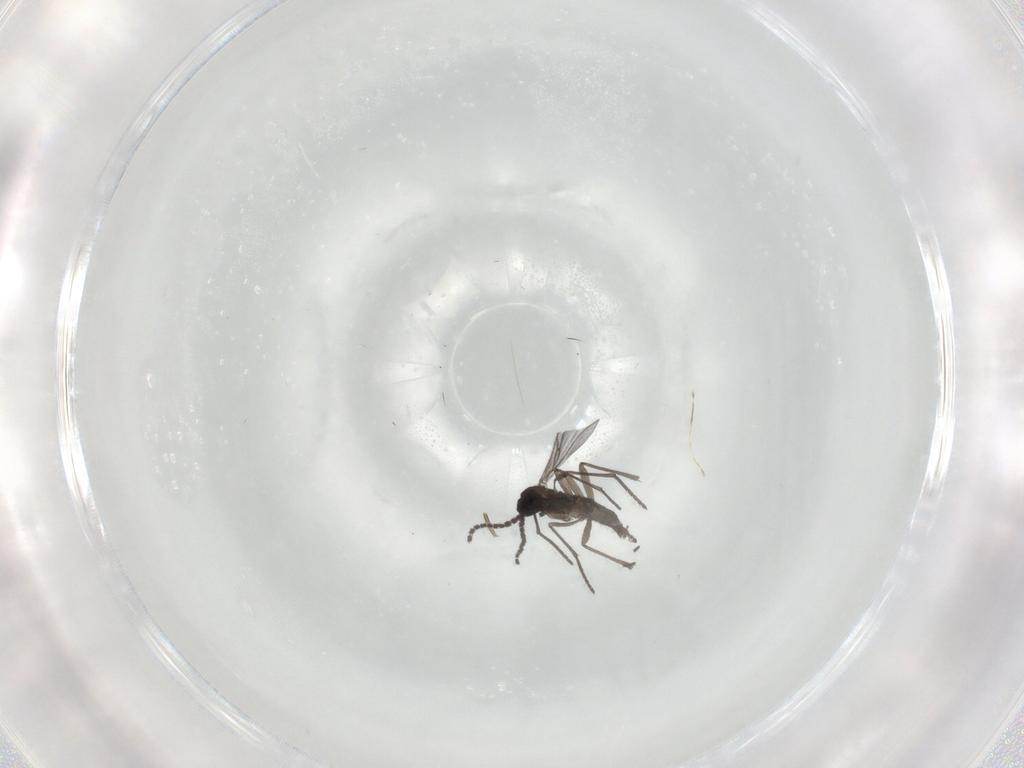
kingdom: Animalia
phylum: Arthropoda
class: Insecta
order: Diptera
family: Cecidomyiidae
